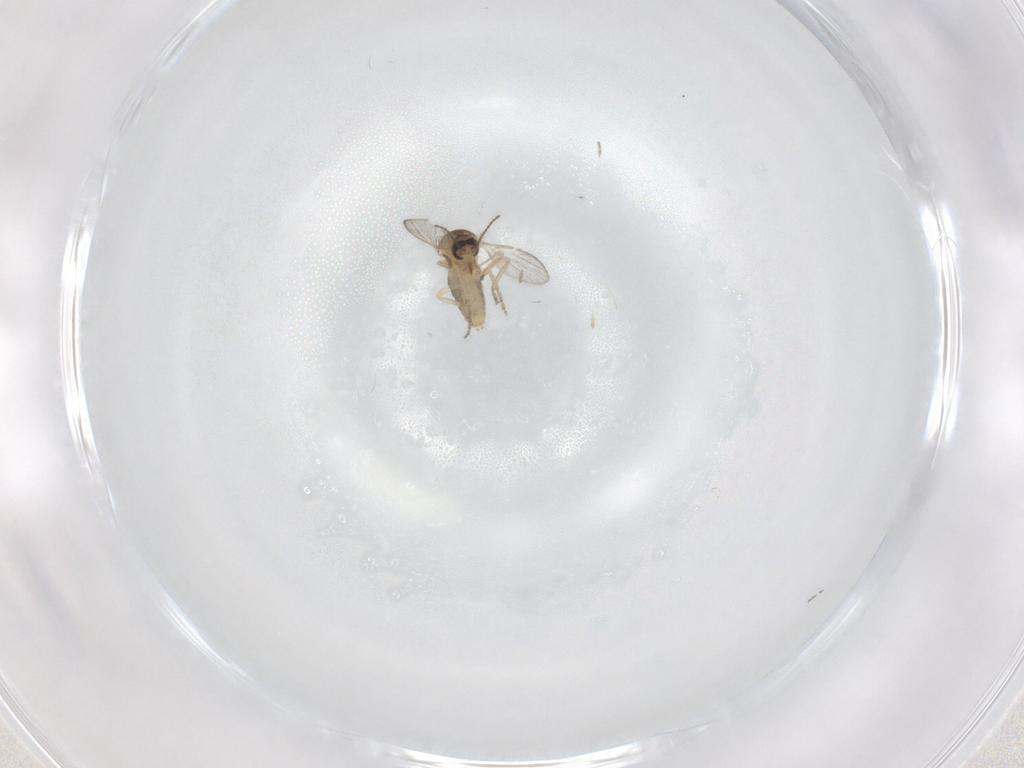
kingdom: Animalia
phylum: Arthropoda
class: Insecta
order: Diptera
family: Ceratopogonidae
